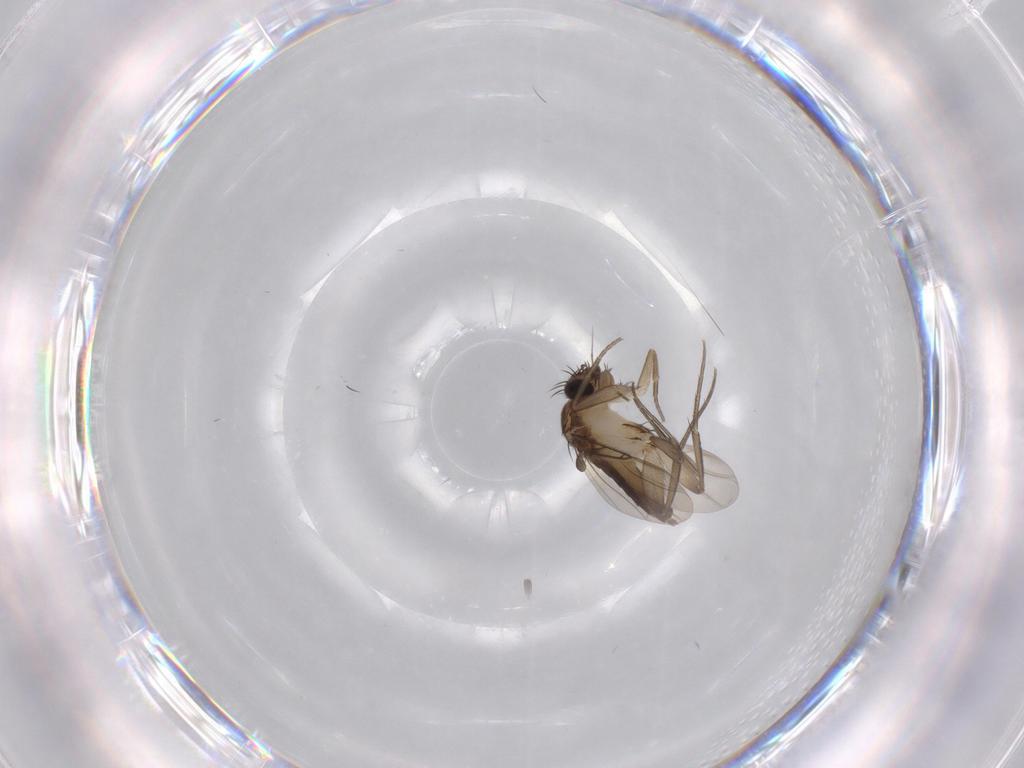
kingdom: Animalia
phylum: Arthropoda
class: Insecta
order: Diptera
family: Phoridae
